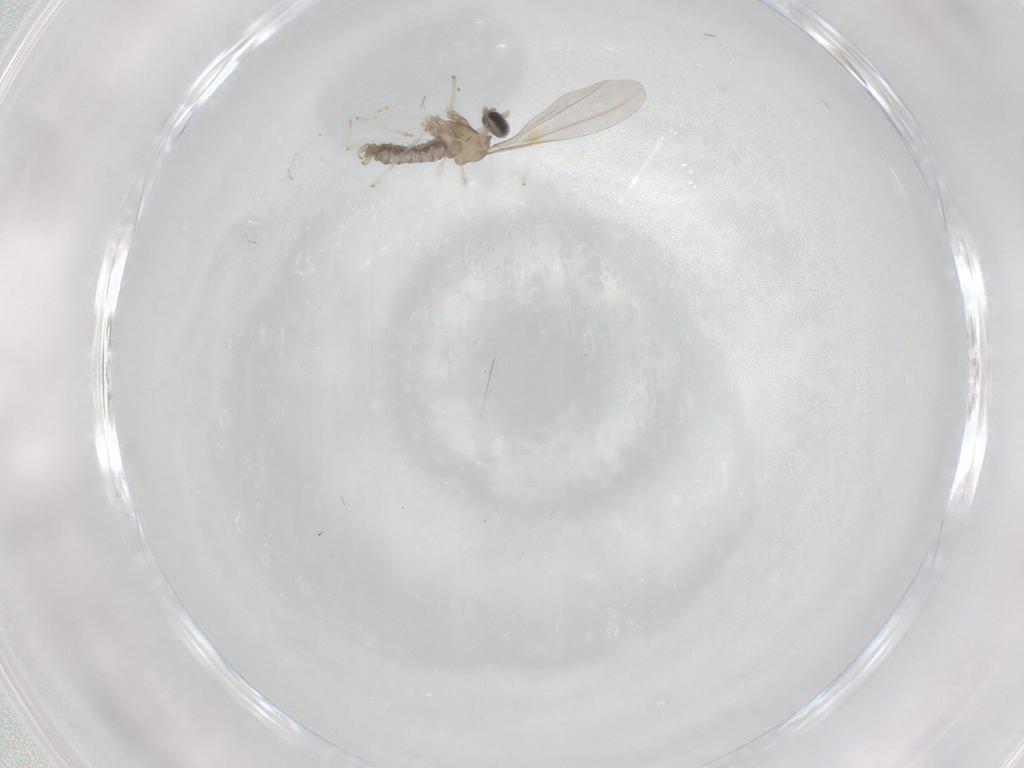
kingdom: Animalia
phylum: Arthropoda
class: Insecta
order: Diptera
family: Cecidomyiidae
